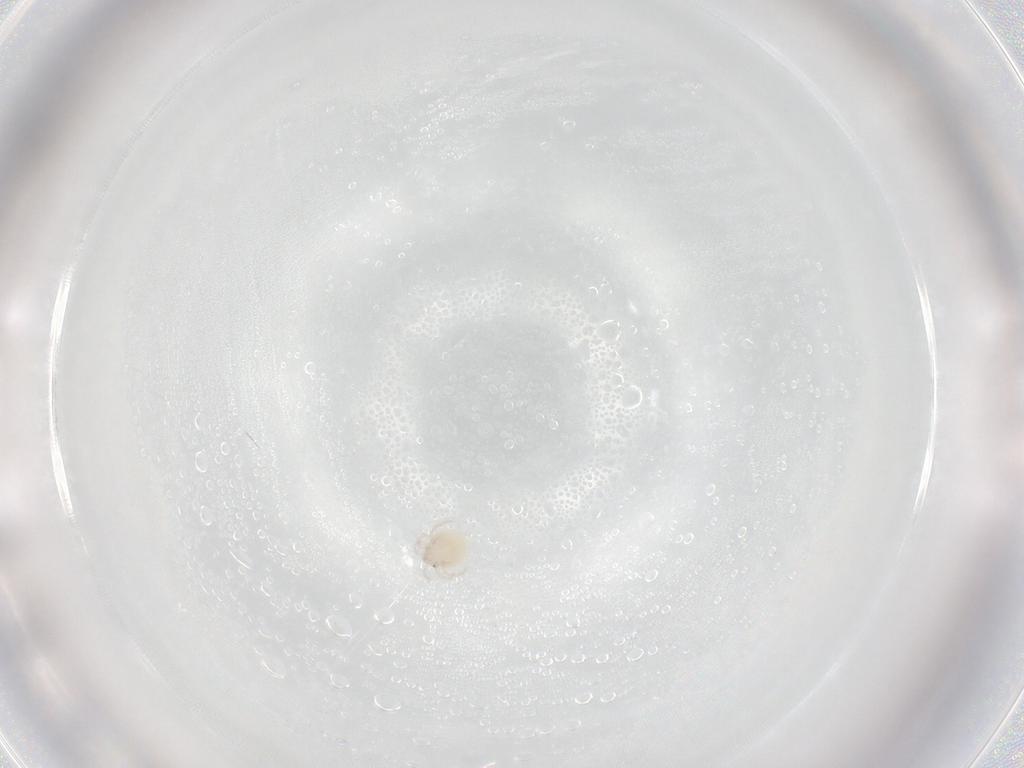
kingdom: Animalia
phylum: Arthropoda
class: Arachnida
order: Trombidiformes
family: Lebertiidae
